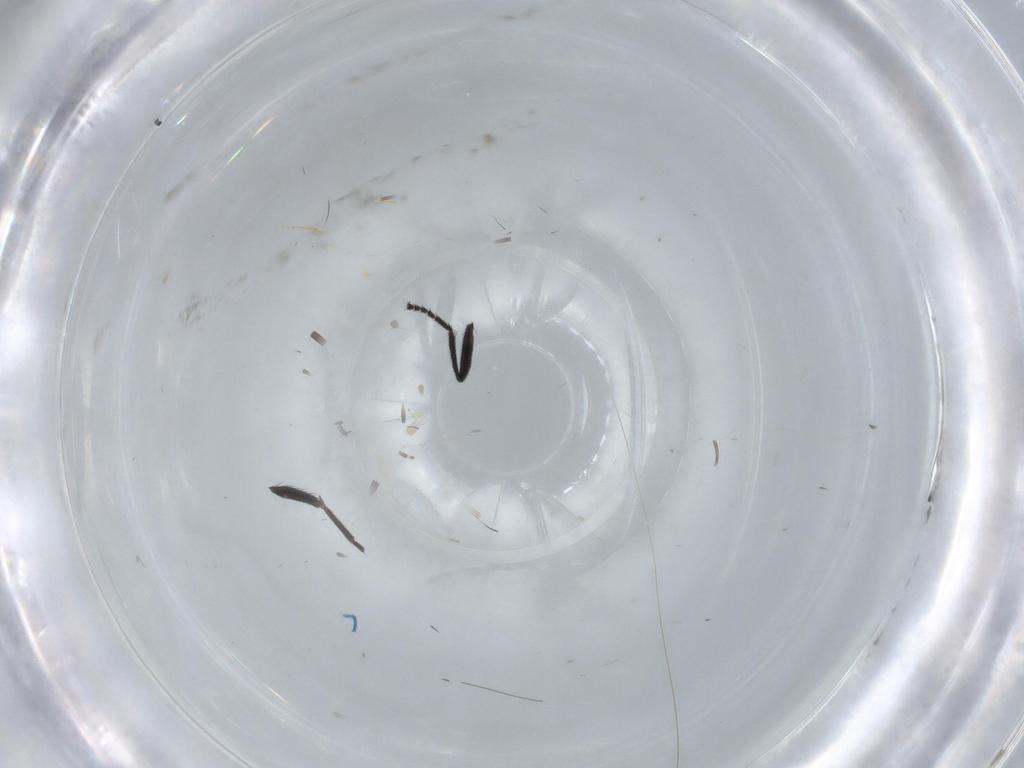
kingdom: Animalia
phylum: Arthropoda
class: Insecta
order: Hymenoptera
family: Bethylidae
